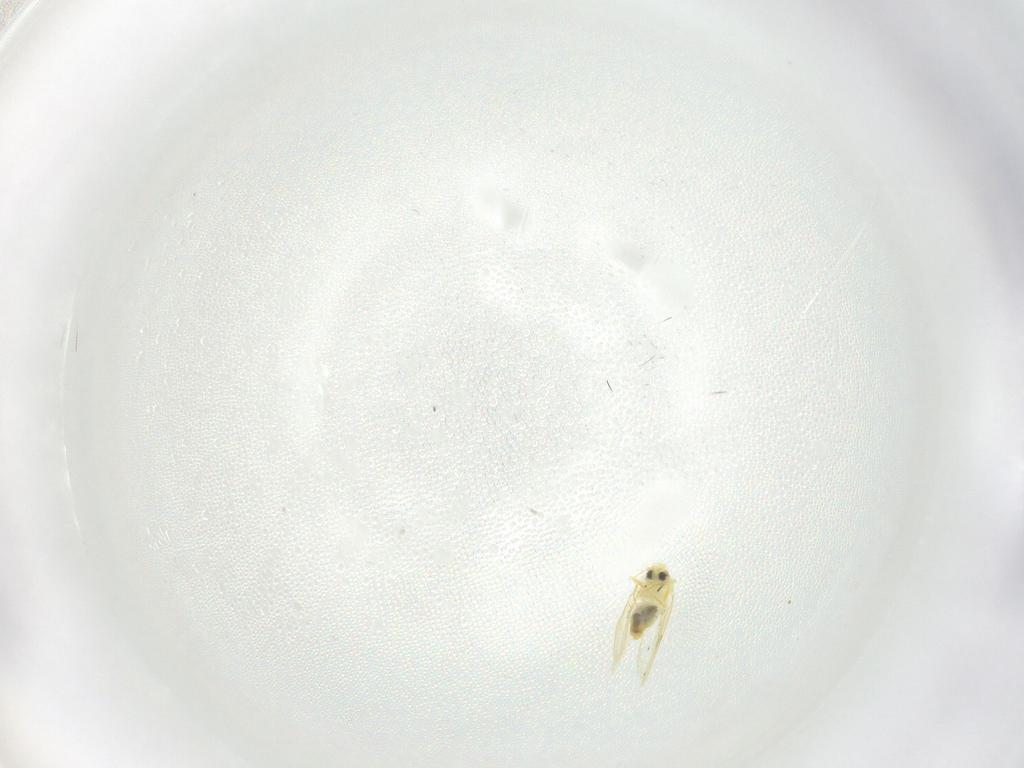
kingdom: Animalia
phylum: Arthropoda
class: Insecta
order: Hemiptera
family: Aleyrodidae
